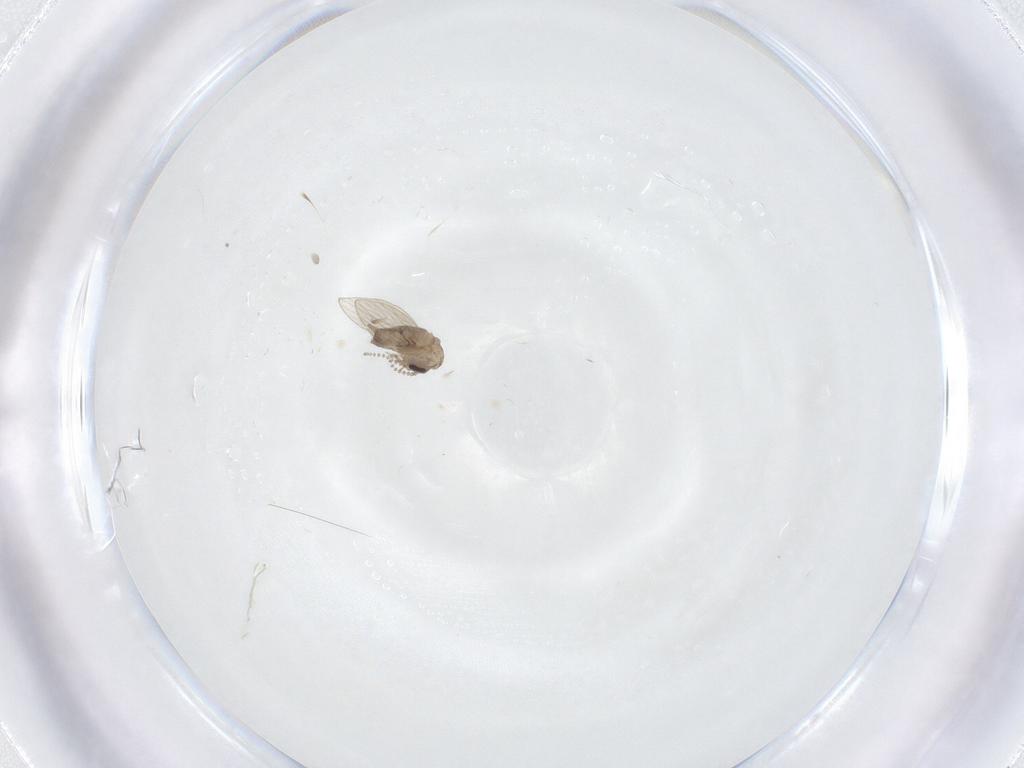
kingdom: Animalia
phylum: Arthropoda
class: Insecta
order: Diptera
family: Psychodidae
